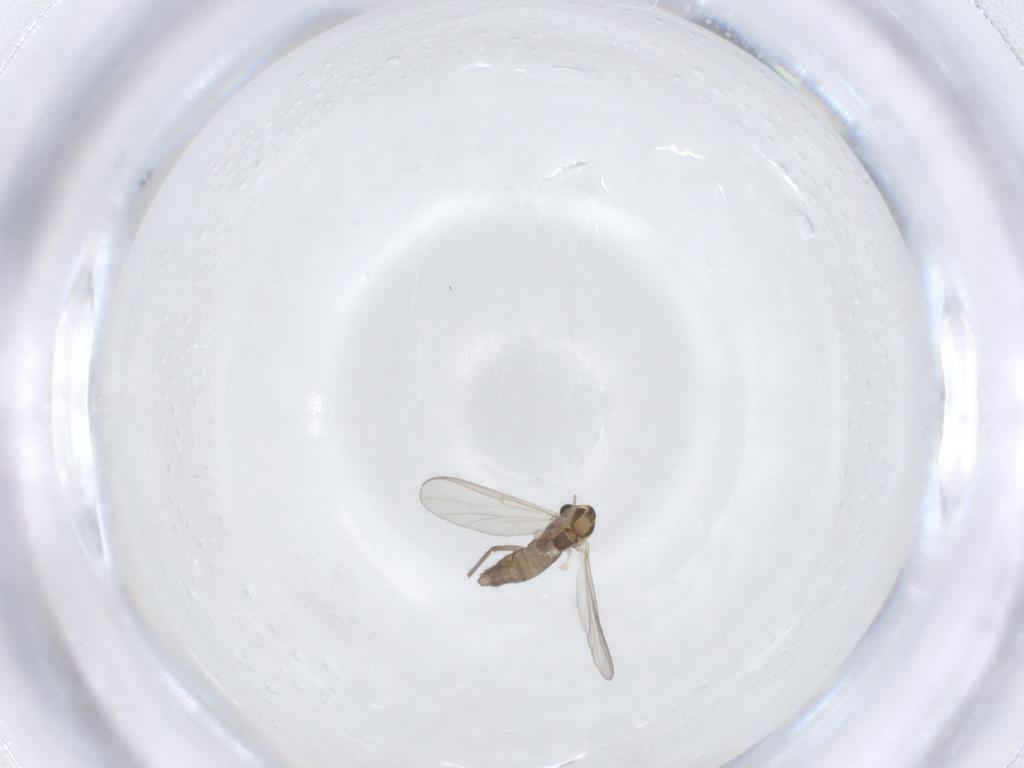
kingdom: Animalia
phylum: Arthropoda
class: Insecta
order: Diptera
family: Chironomidae
